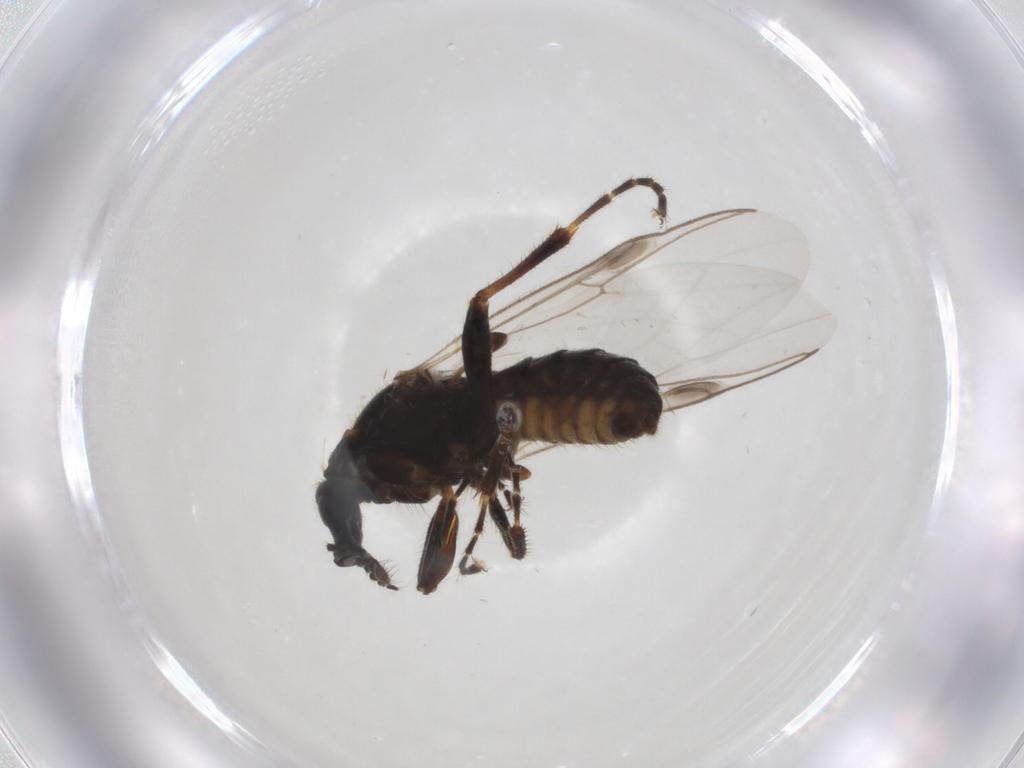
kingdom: Animalia
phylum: Arthropoda
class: Insecta
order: Diptera
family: Bibionidae
